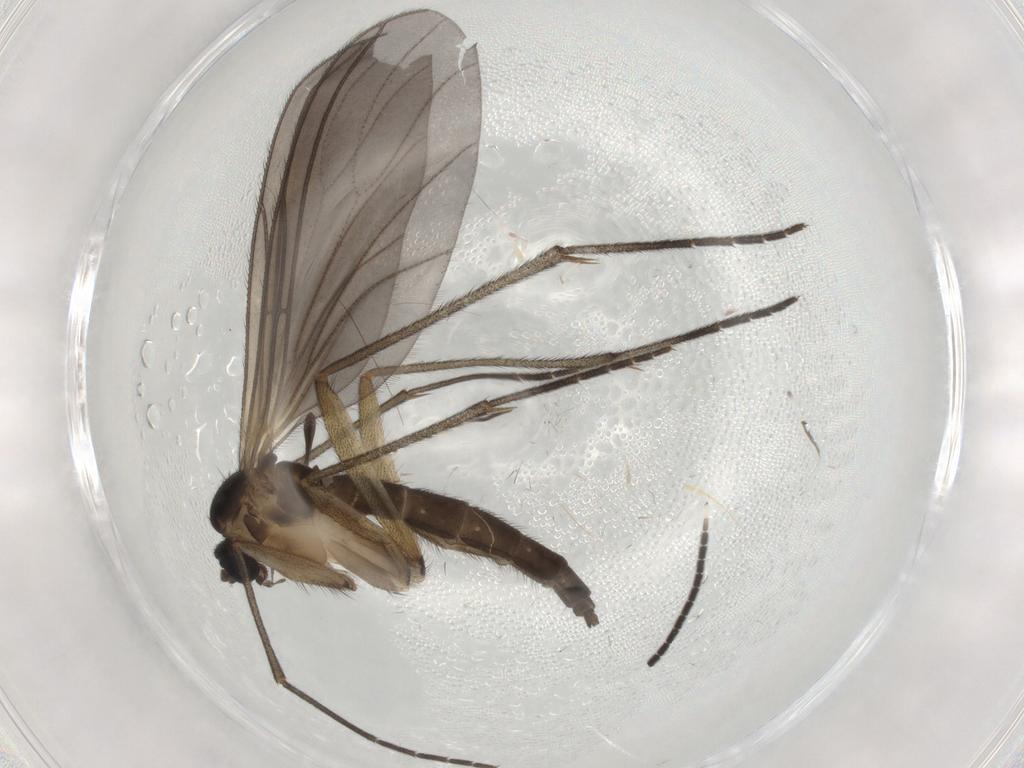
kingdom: Animalia
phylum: Arthropoda
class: Insecta
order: Diptera
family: Sciaridae
